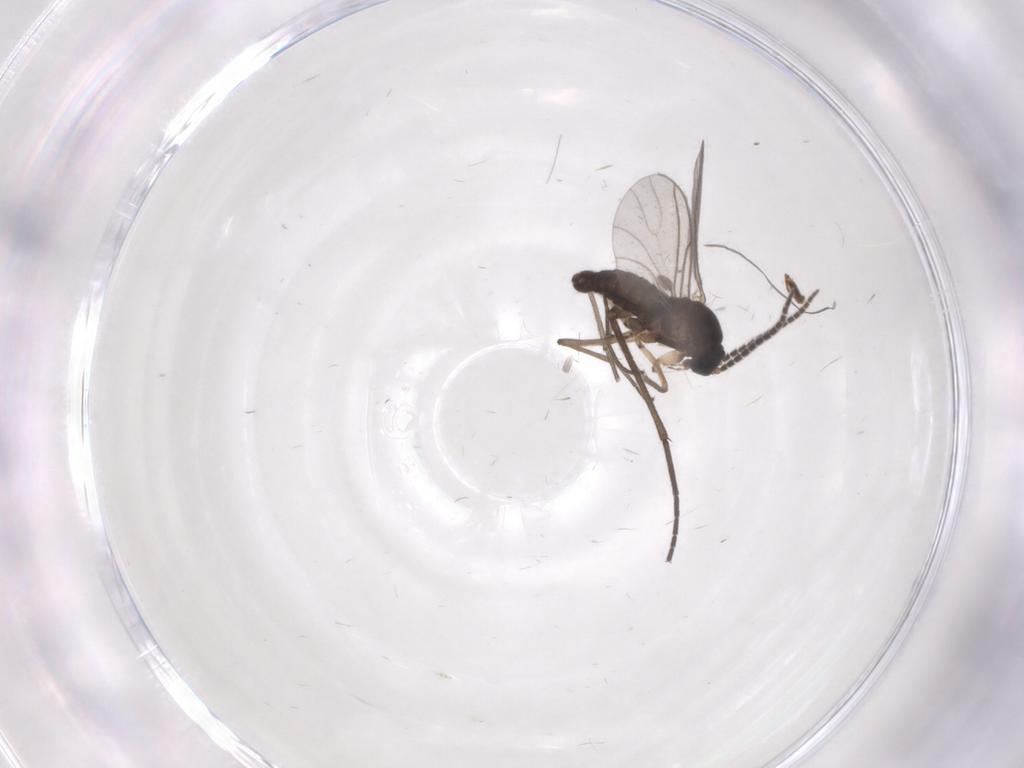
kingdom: Animalia
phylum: Arthropoda
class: Insecta
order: Diptera
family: Sciaridae
